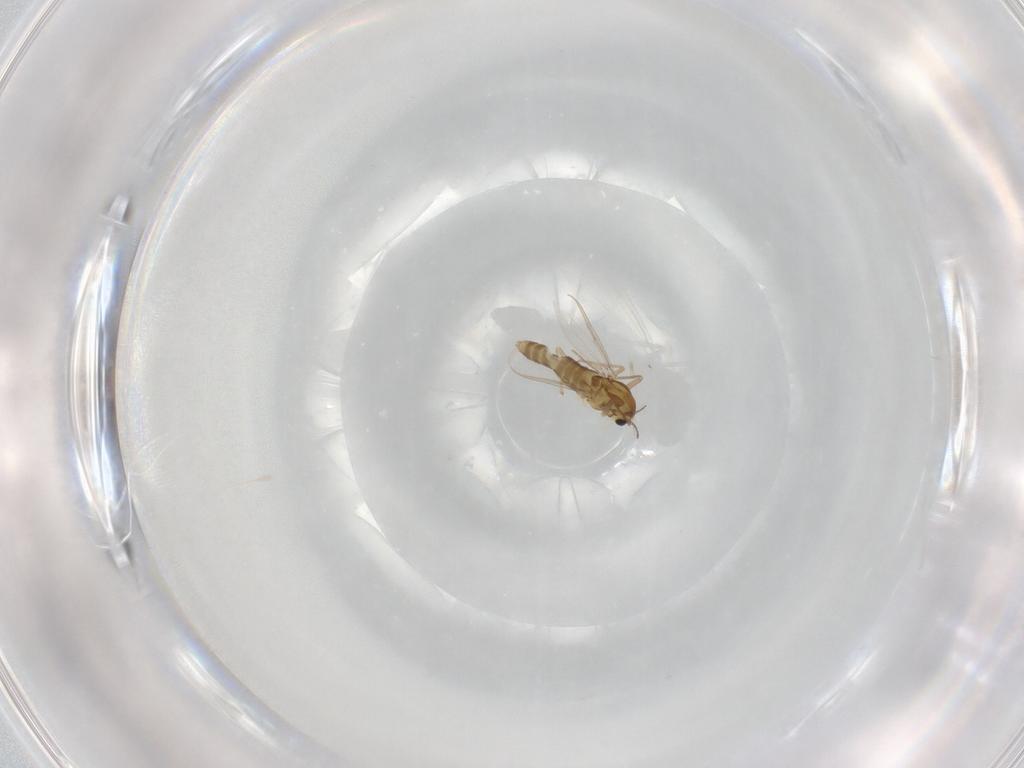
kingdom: Animalia
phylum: Arthropoda
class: Insecta
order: Diptera
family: Chironomidae
